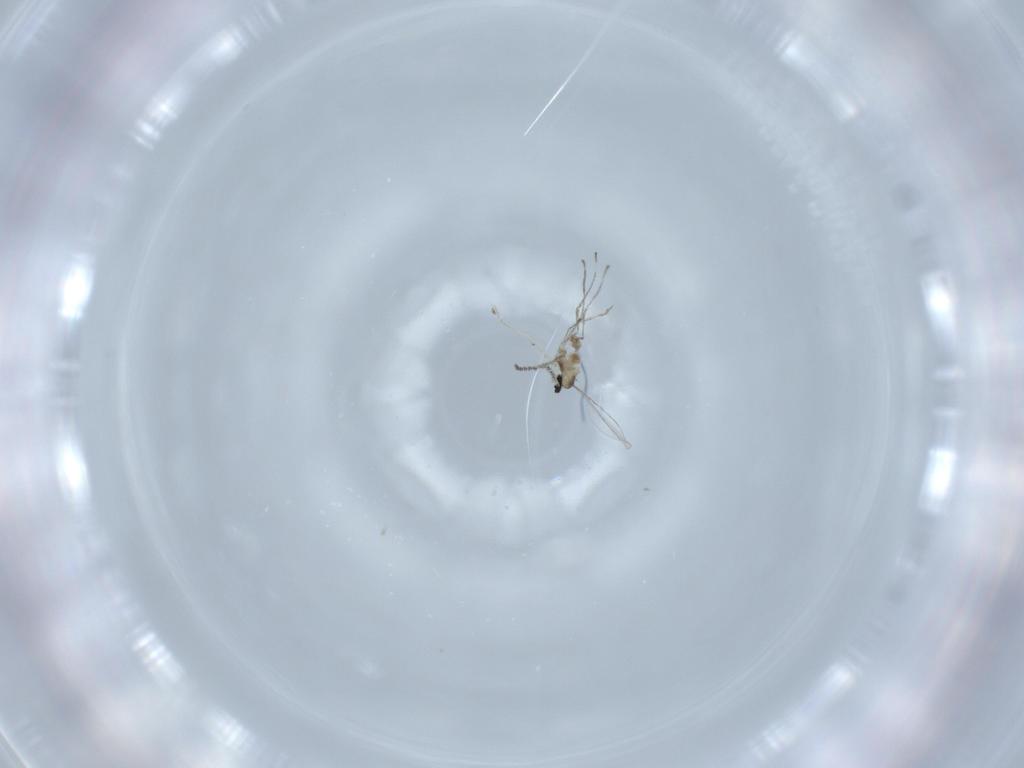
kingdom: Animalia
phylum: Arthropoda
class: Insecta
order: Diptera
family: Cecidomyiidae
